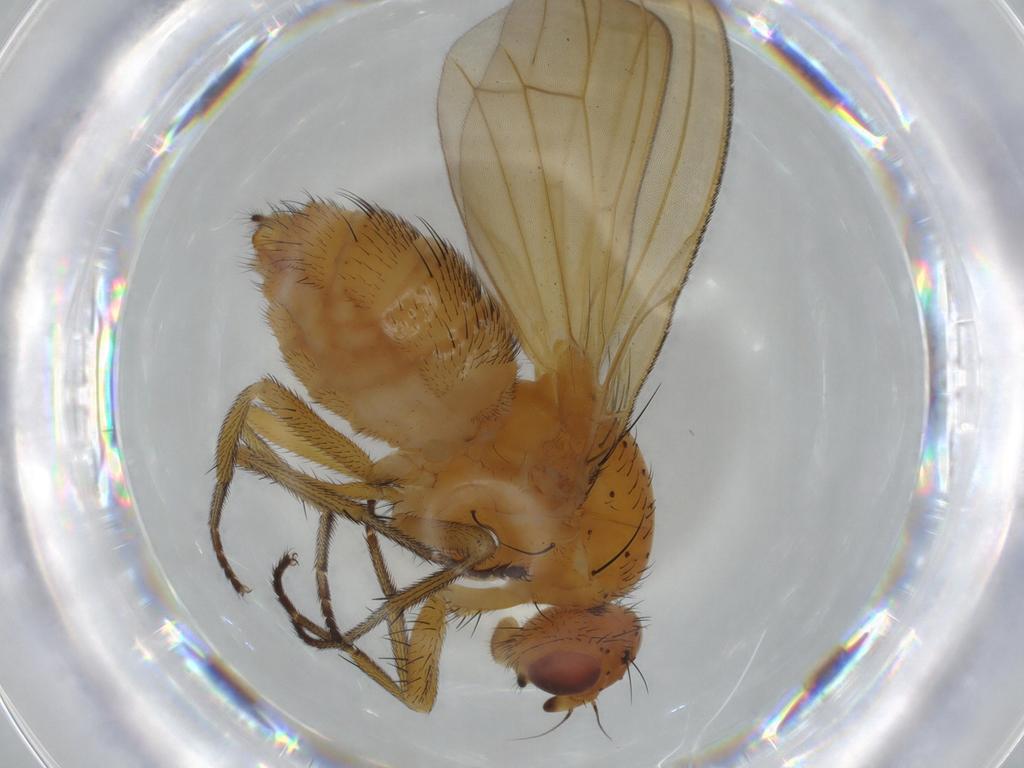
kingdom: Animalia
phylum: Arthropoda
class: Insecta
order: Diptera
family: Lauxaniidae
